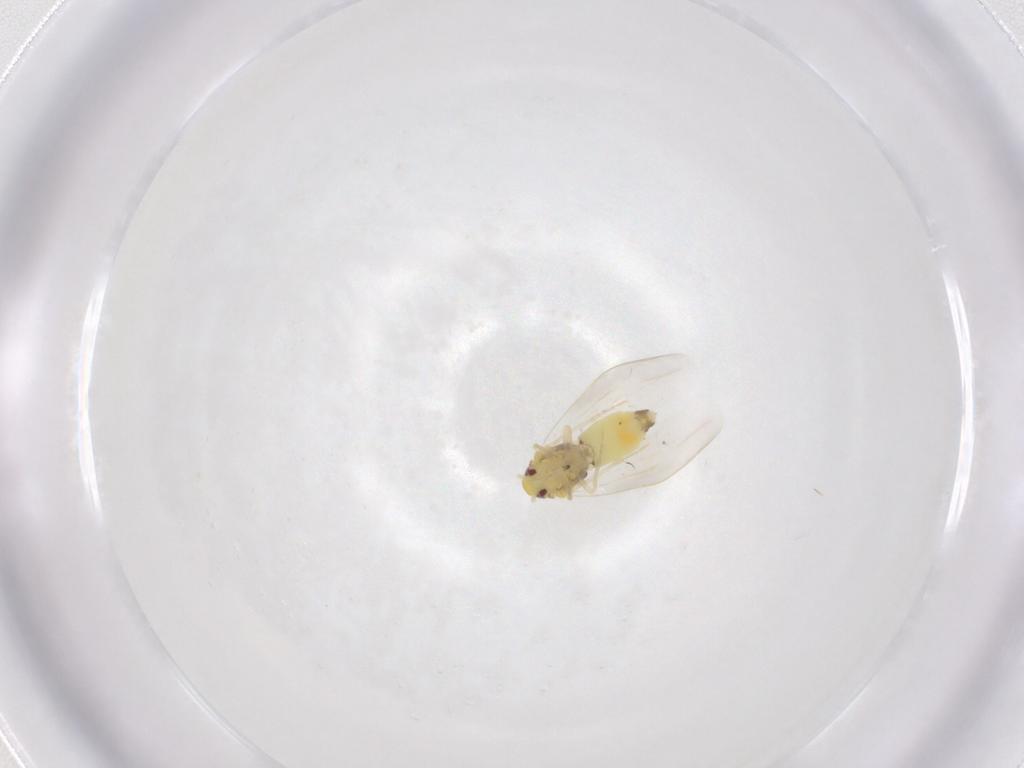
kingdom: Animalia
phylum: Arthropoda
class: Insecta
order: Hemiptera
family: Aleyrodidae
